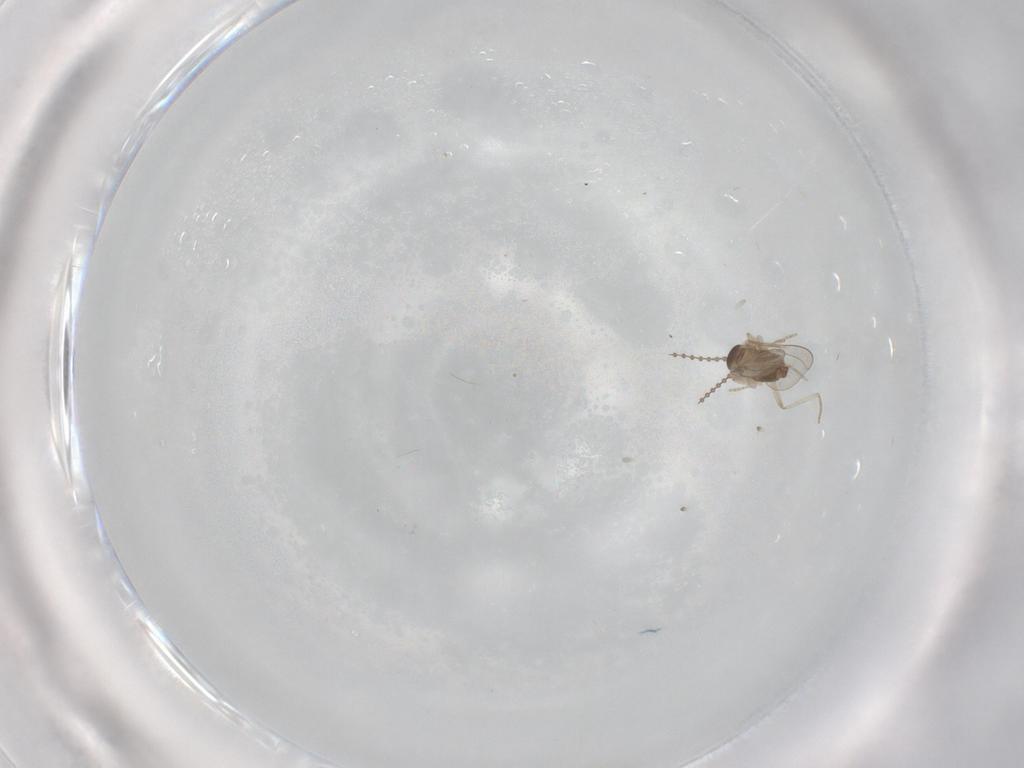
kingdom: Animalia
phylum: Arthropoda
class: Insecta
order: Diptera
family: Cecidomyiidae
